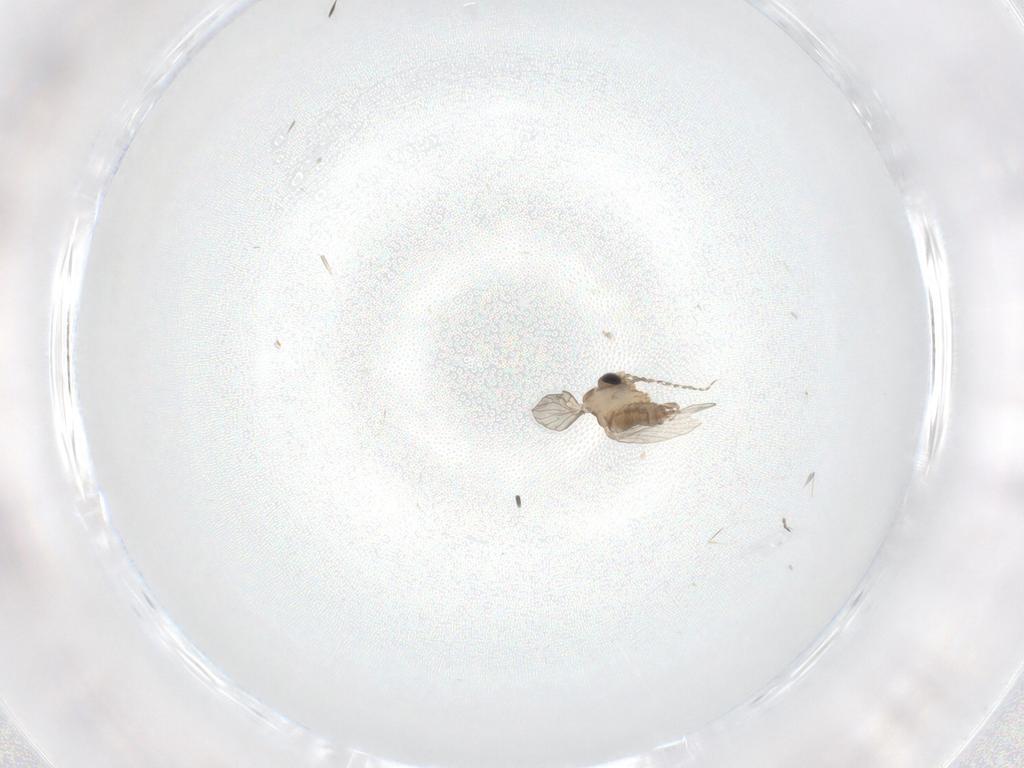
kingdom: Animalia
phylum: Arthropoda
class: Insecta
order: Diptera
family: Cecidomyiidae
